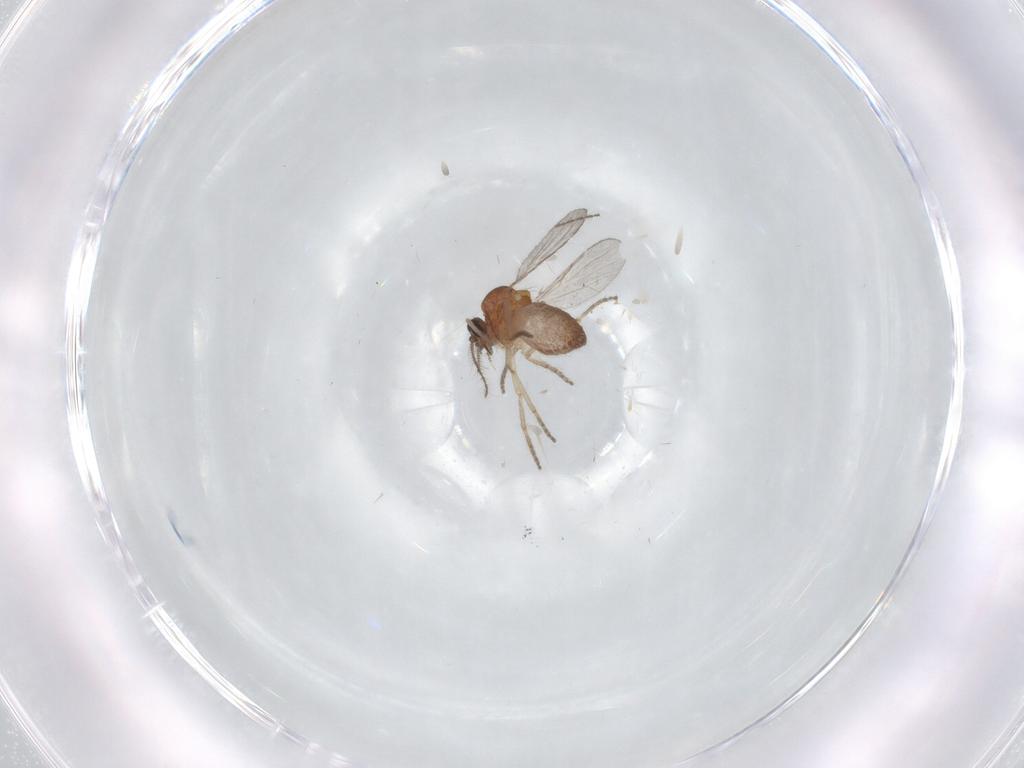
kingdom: Animalia
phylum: Arthropoda
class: Insecta
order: Diptera
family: Ceratopogonidae
